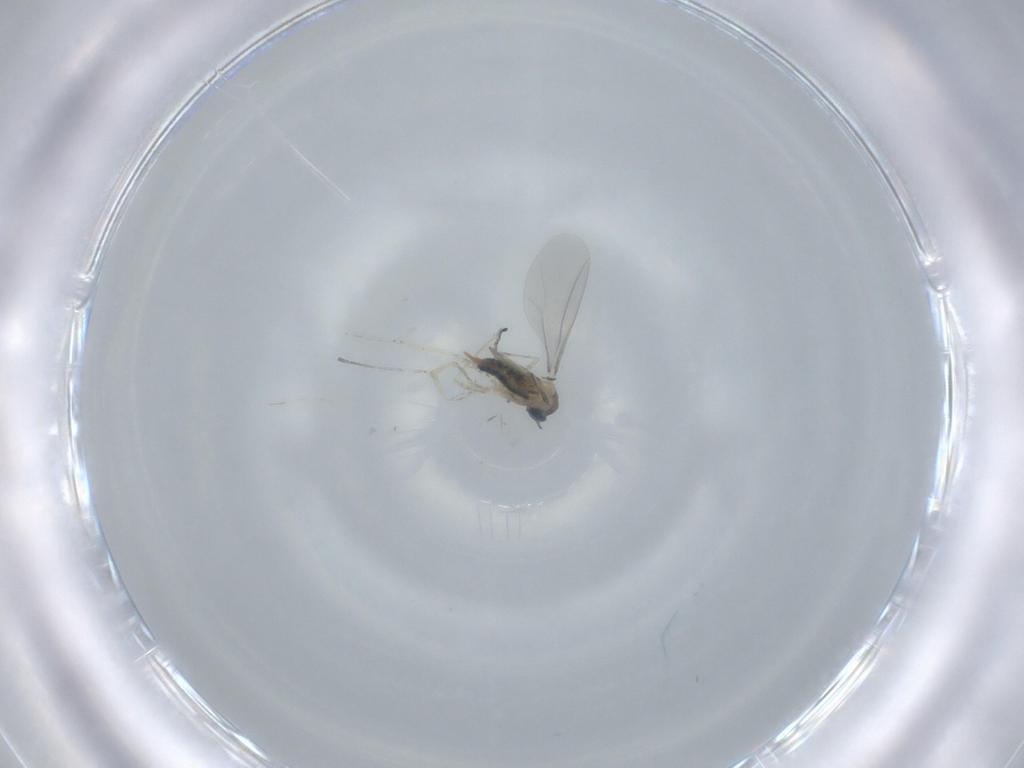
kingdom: Animalia
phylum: Arthropoda
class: Insecta
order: Diptera
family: Cecidomyiidae
